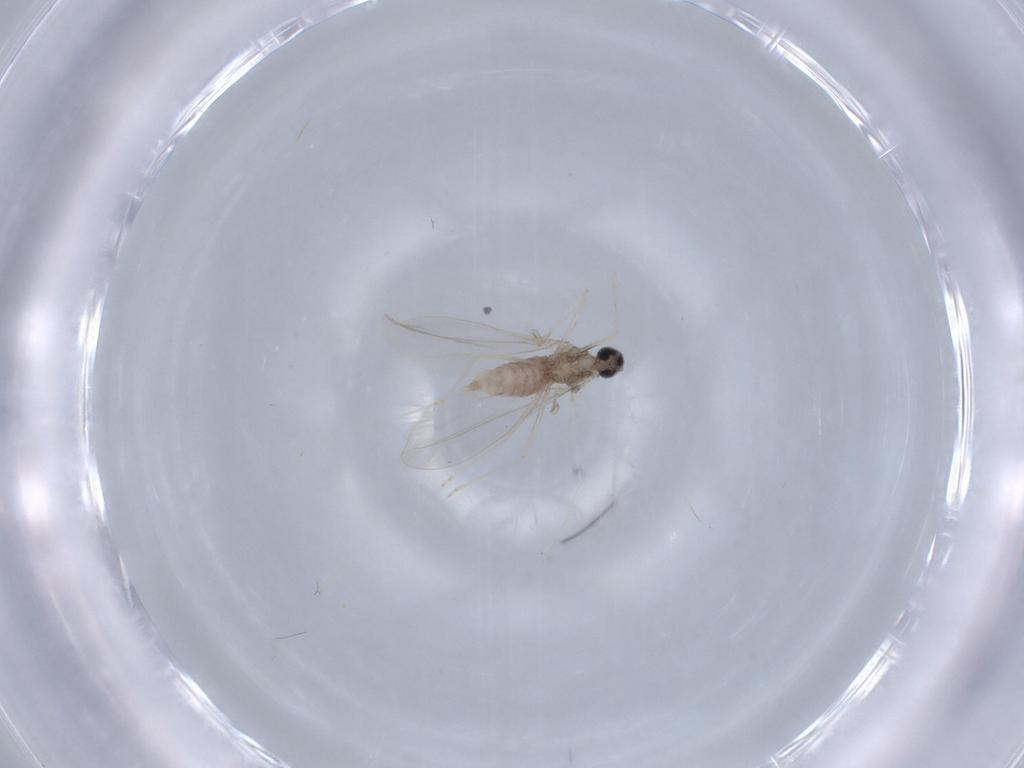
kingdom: Animalia
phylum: Arthropoda
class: Insecta
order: Diptera
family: Cecidomyiidae
